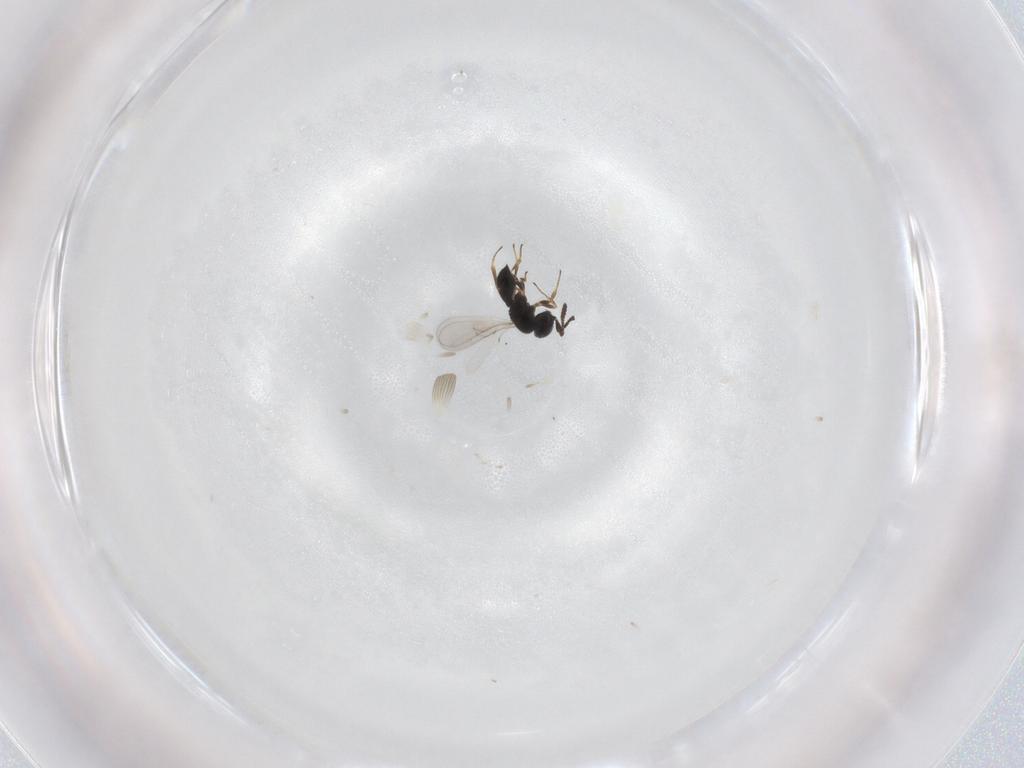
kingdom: Animalia
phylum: Arthropoda
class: Insecta
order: Hymenoptera
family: Scelionidae
